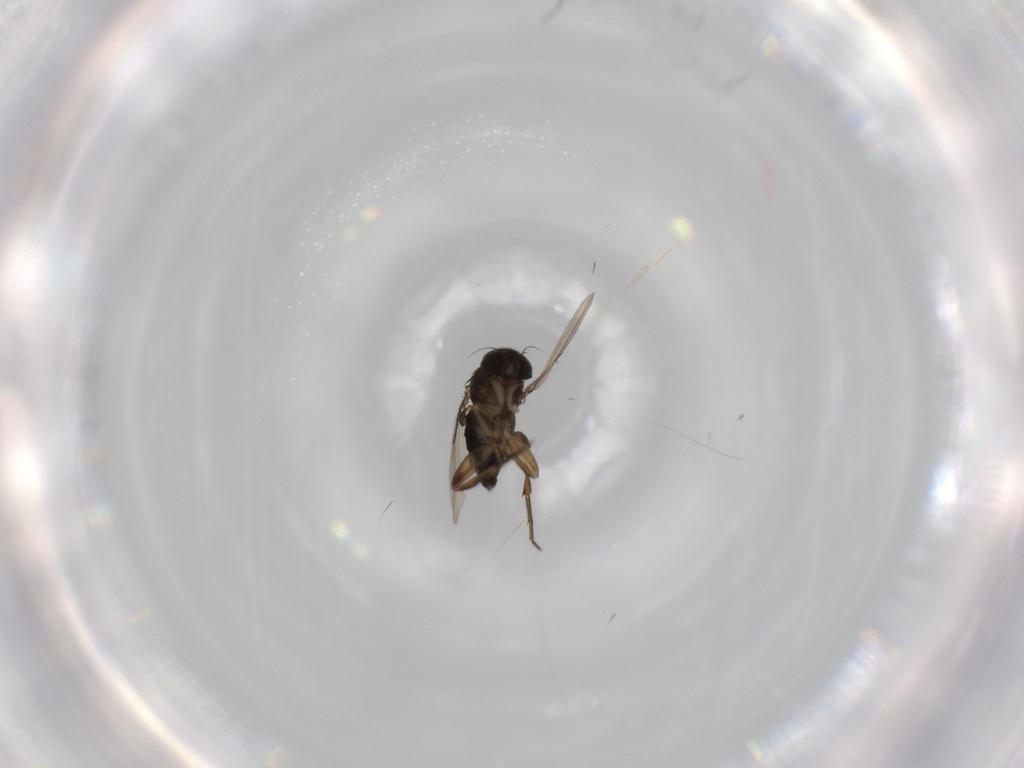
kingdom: Animalia
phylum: Arthropoda
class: Insecta
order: Diptera
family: Phoridae
